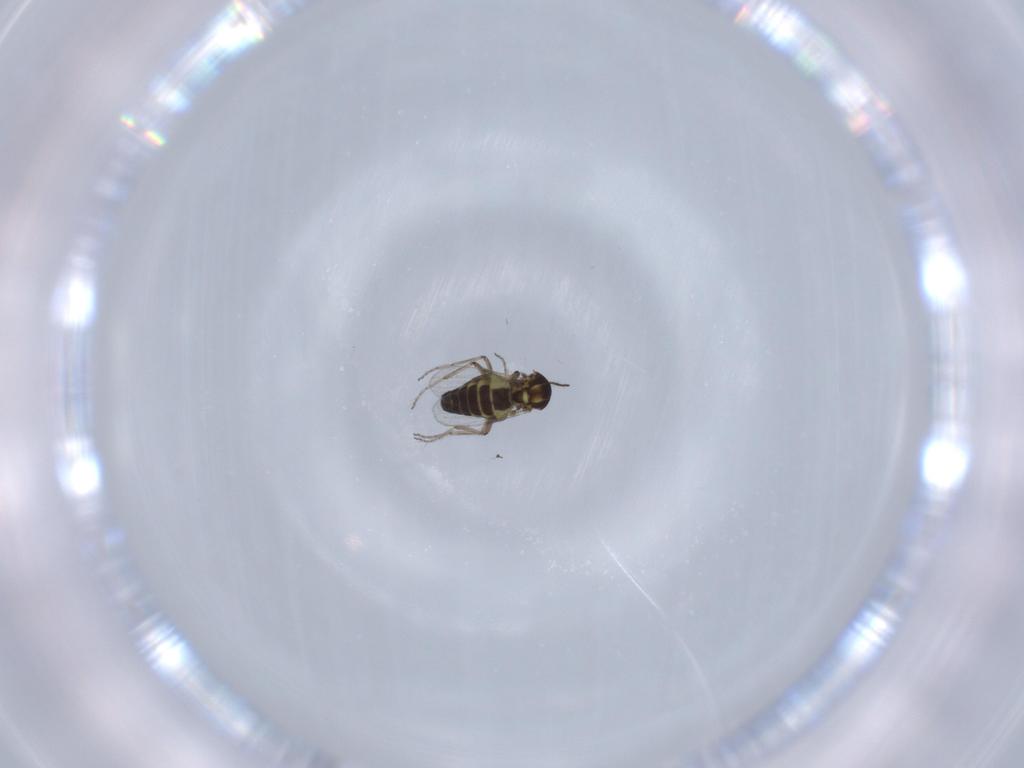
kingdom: Animalia
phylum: Arthropoda
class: Insecta
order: Diptera
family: Ceratopogonidae
